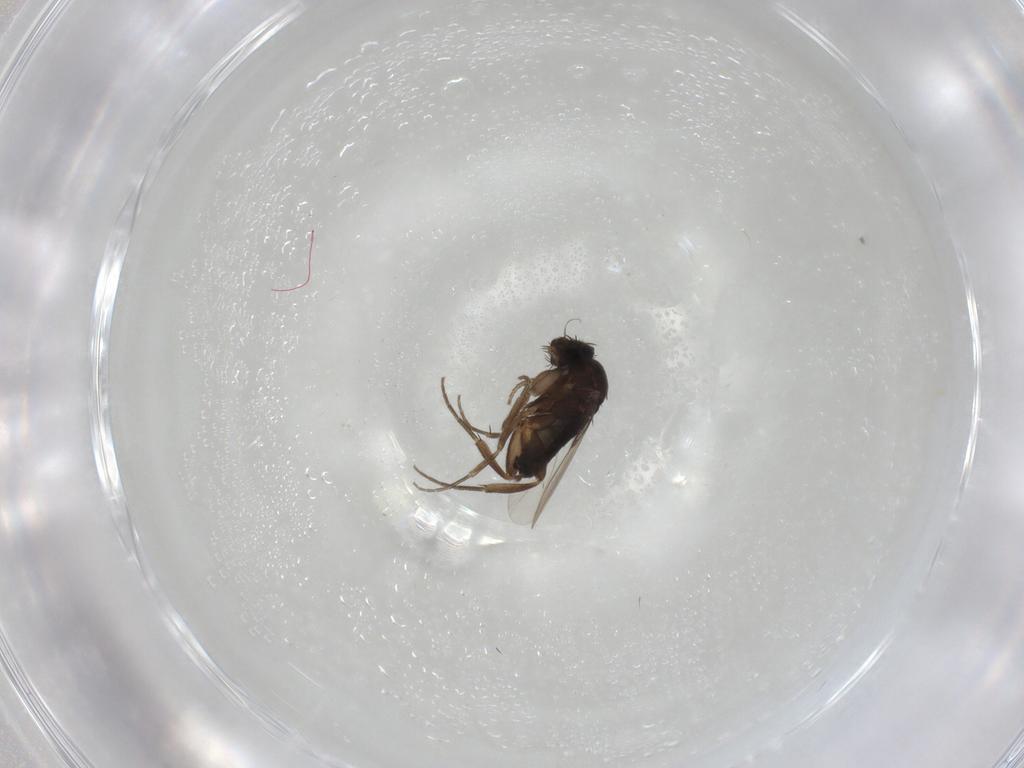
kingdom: Animalia
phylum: Arthropoda
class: Insecta
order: Diptera
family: Phoridae
